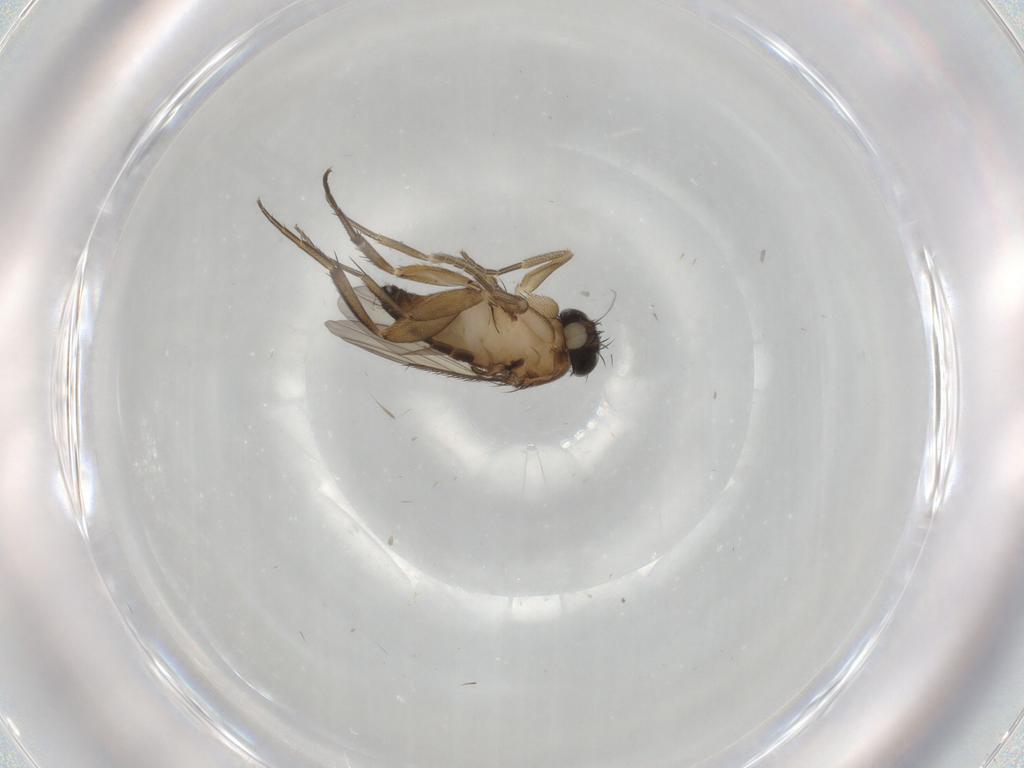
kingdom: Animalia
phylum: Arthropoda
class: Insecta
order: Diptera
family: Phoridae
